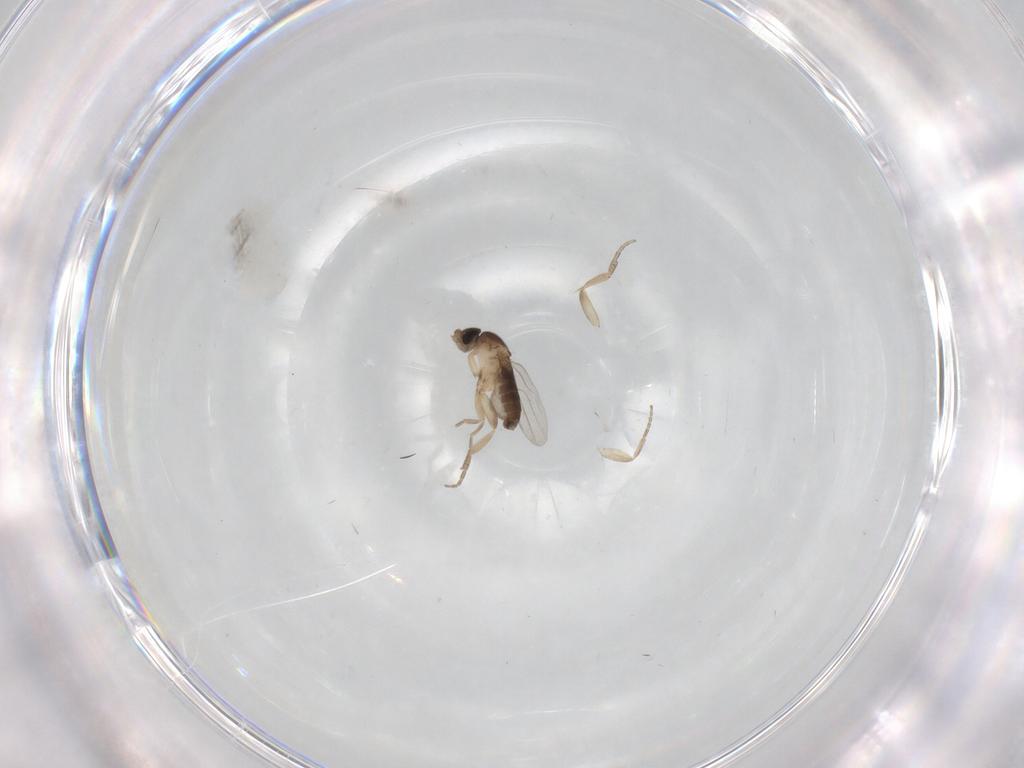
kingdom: Animalia
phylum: Arthropoda
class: Insecta
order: Diptera
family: Phoridae
